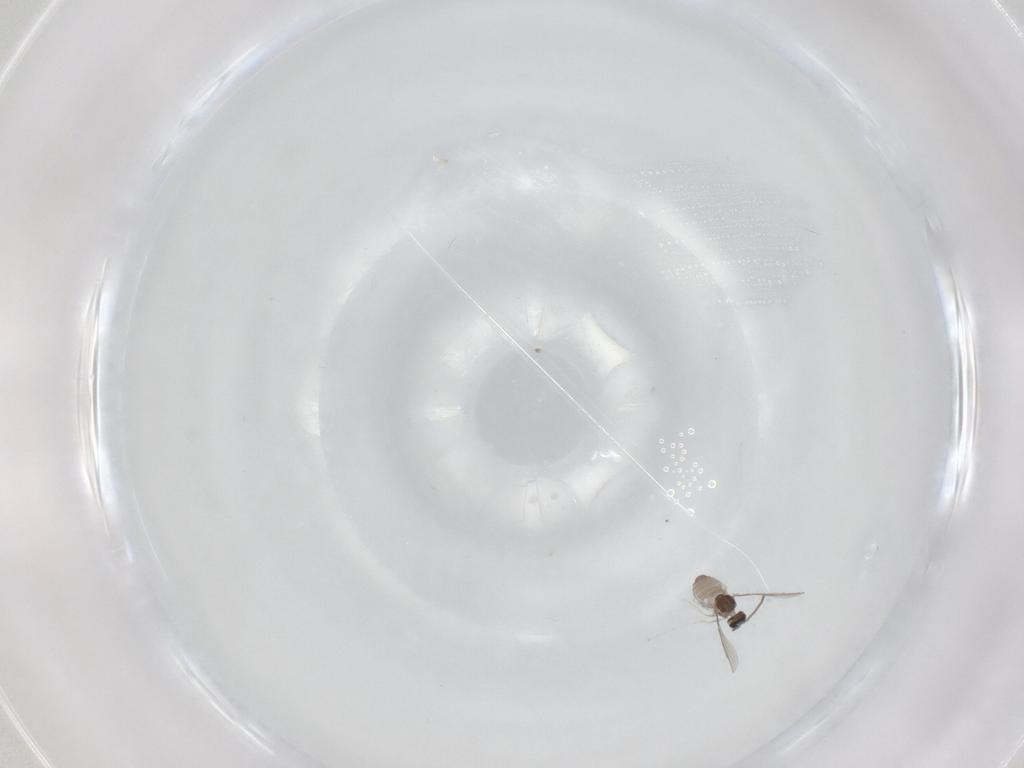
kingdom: Animalia
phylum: Arthropoda
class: Insecta
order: Diptera
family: Cecidomyiidae
